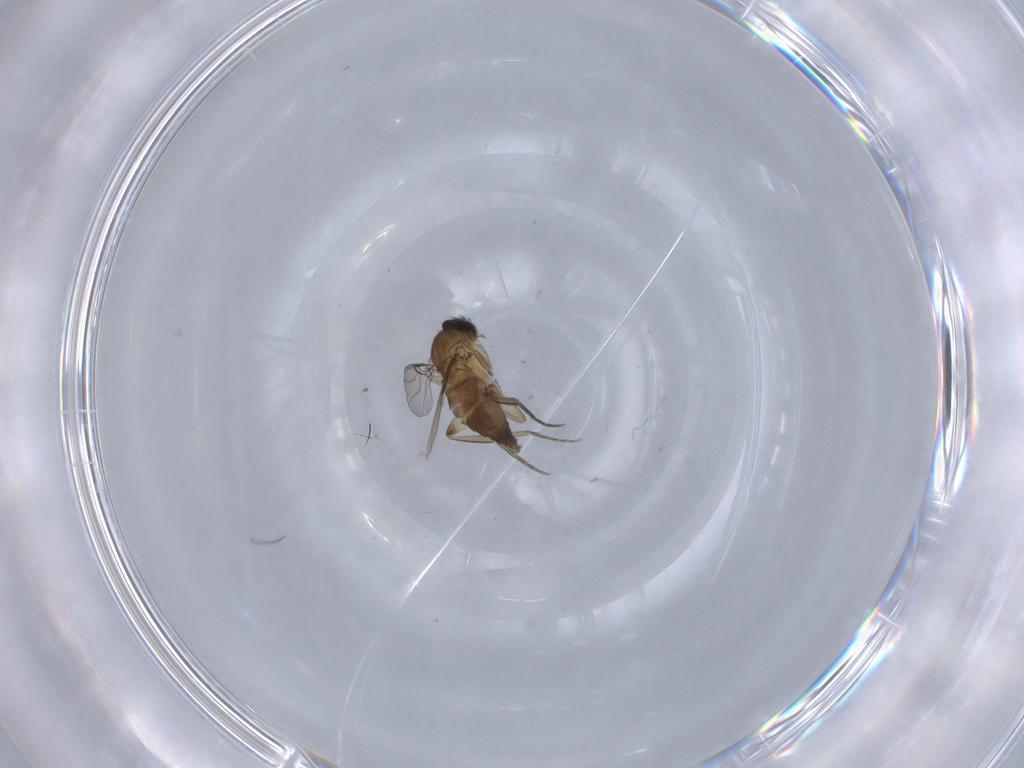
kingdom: Animalia
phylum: Arthropoda
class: Insecta
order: Diptera
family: Phoridae
